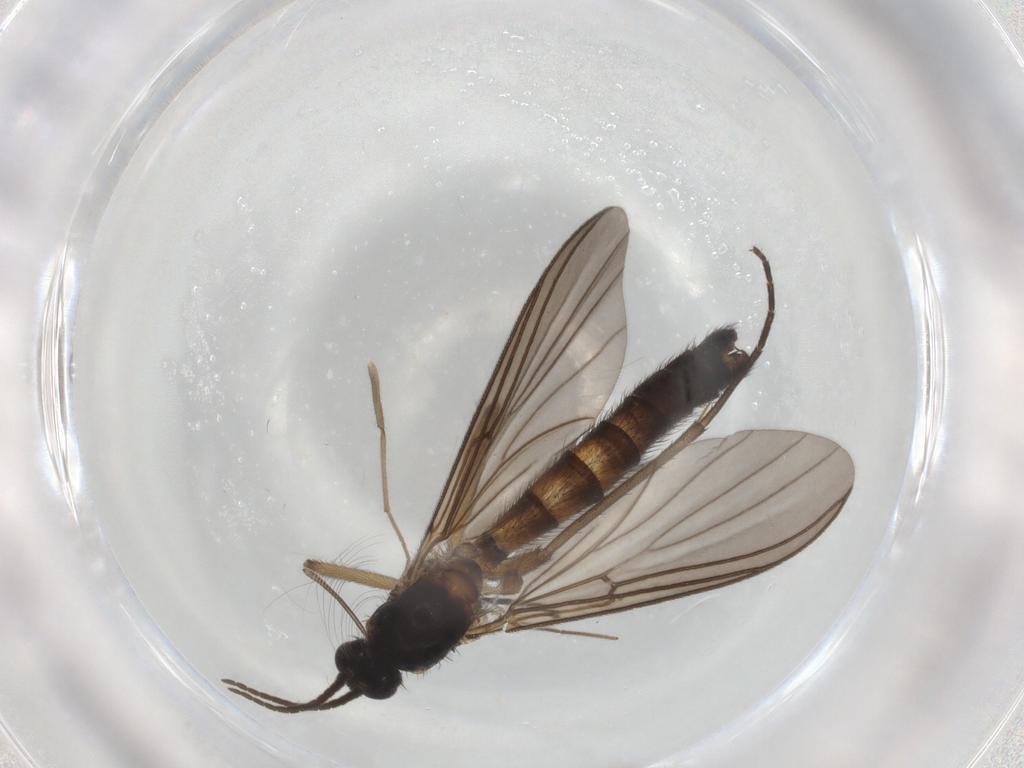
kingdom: Animalia
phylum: Arthropoda
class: Insecta
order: Diptera
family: Mycetophilidae
